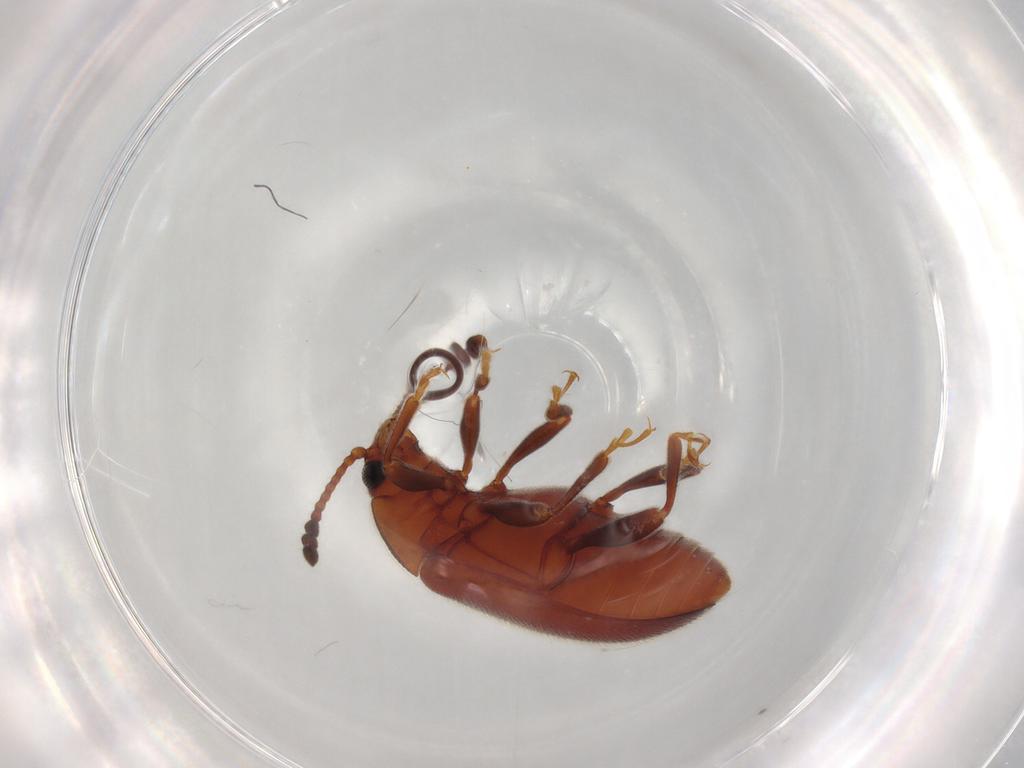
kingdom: Animalia
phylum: Arthropoda
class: Insecta
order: Coleoptera
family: Endomychidae
